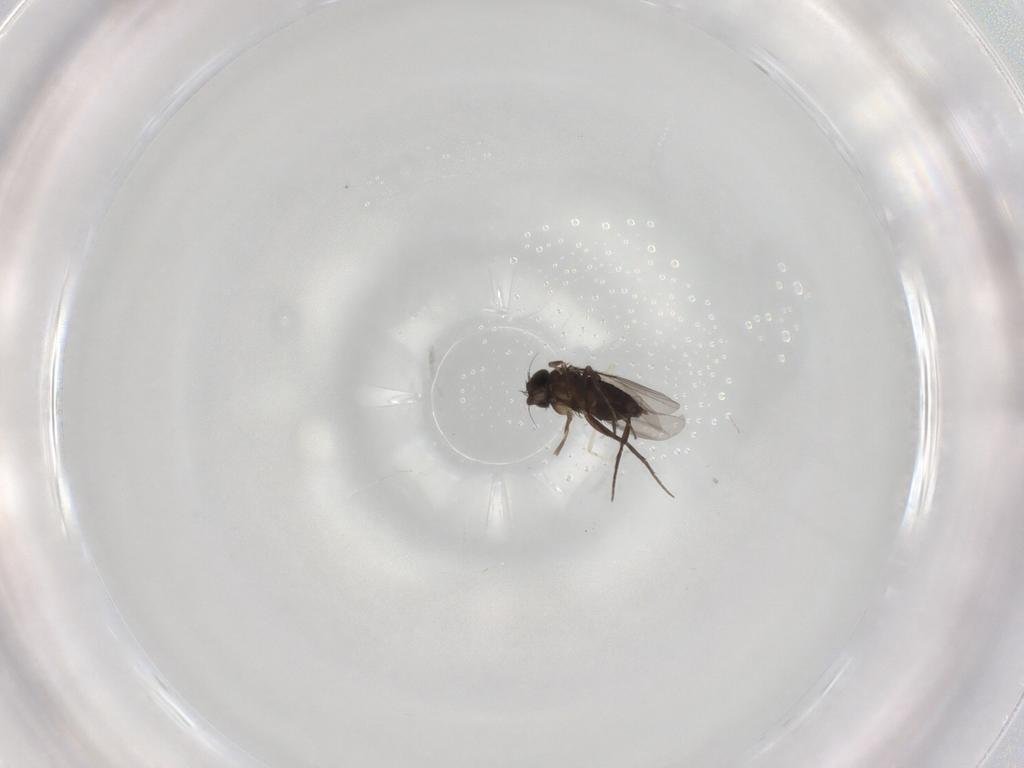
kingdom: Animalia
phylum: Arthropoda
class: Insecta
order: Diptera
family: Phoridae
